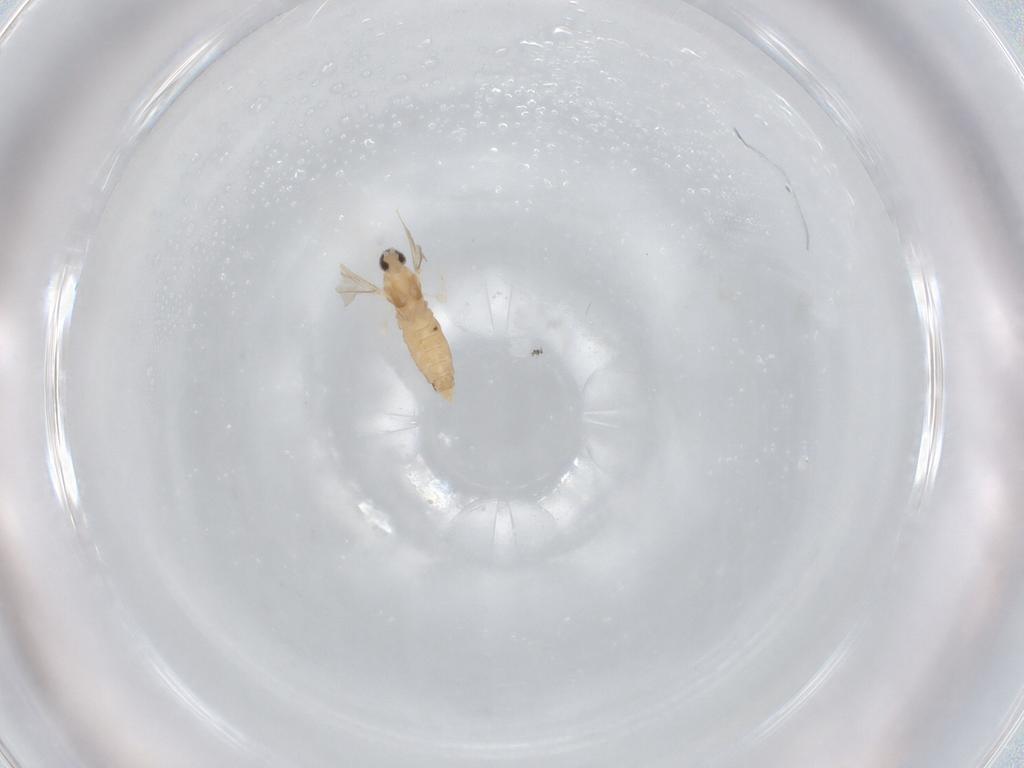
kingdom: Animalia
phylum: Arthropoda
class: Insecta
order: Diptera
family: Cecidomyiidae
